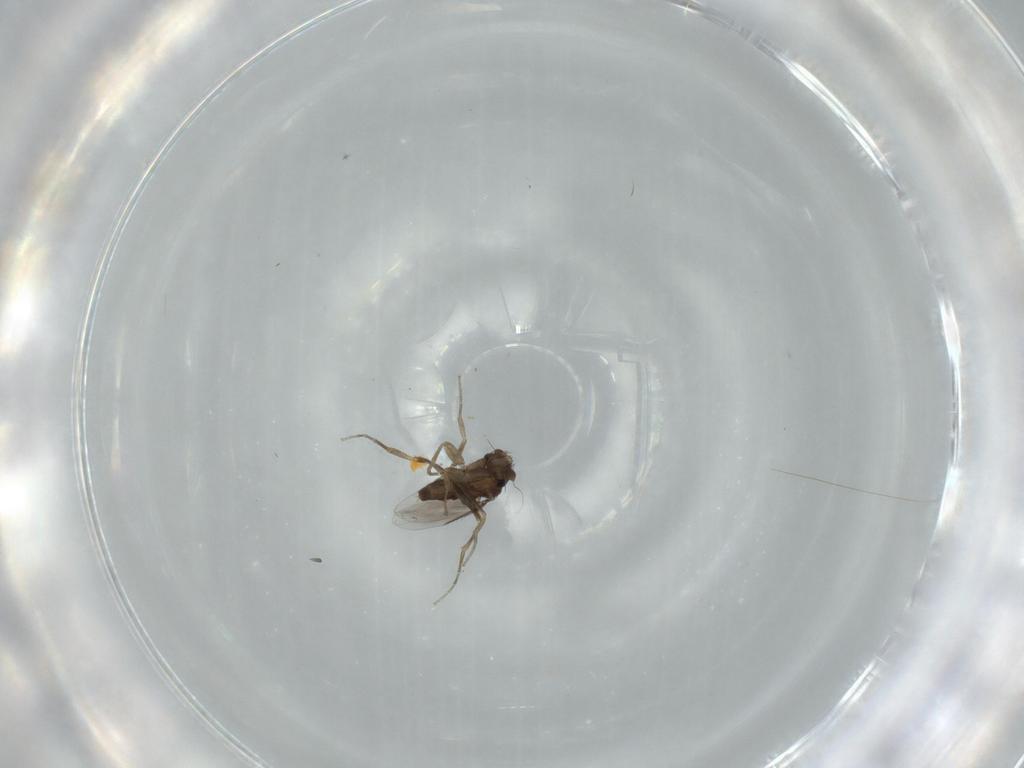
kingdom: Animalia
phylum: Arthropoda
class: Insecta
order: Diptera
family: Phoridae
